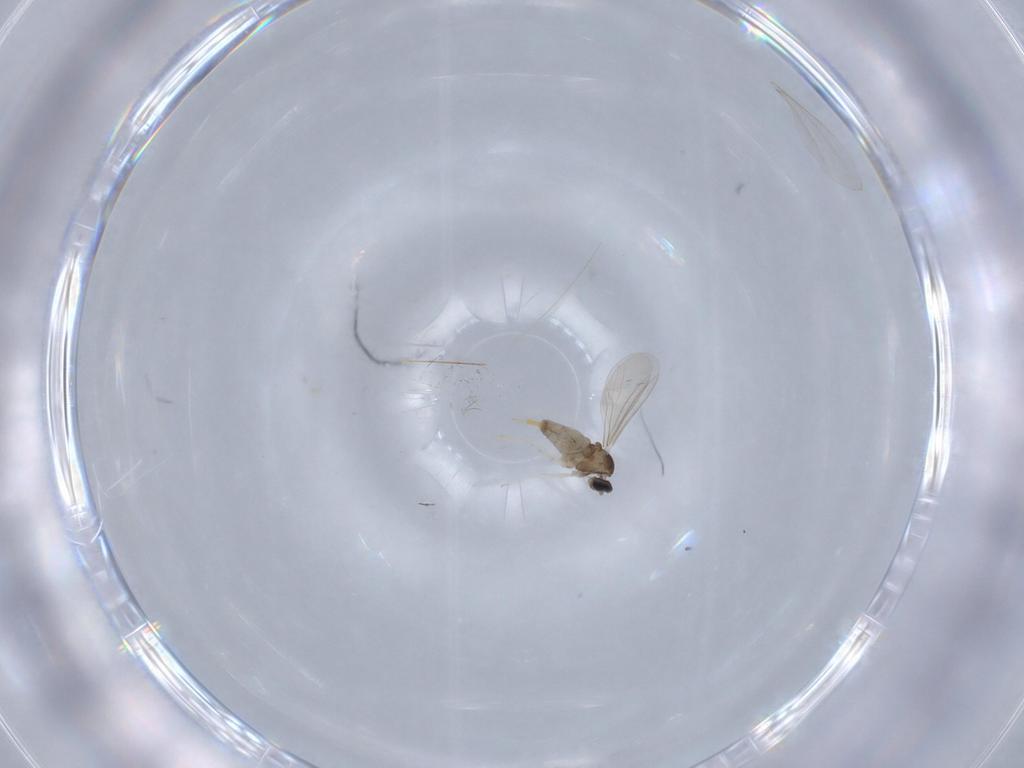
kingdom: Animalia
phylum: Arthropoda
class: Insecta
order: Diptera
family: Cecidomyiidae
